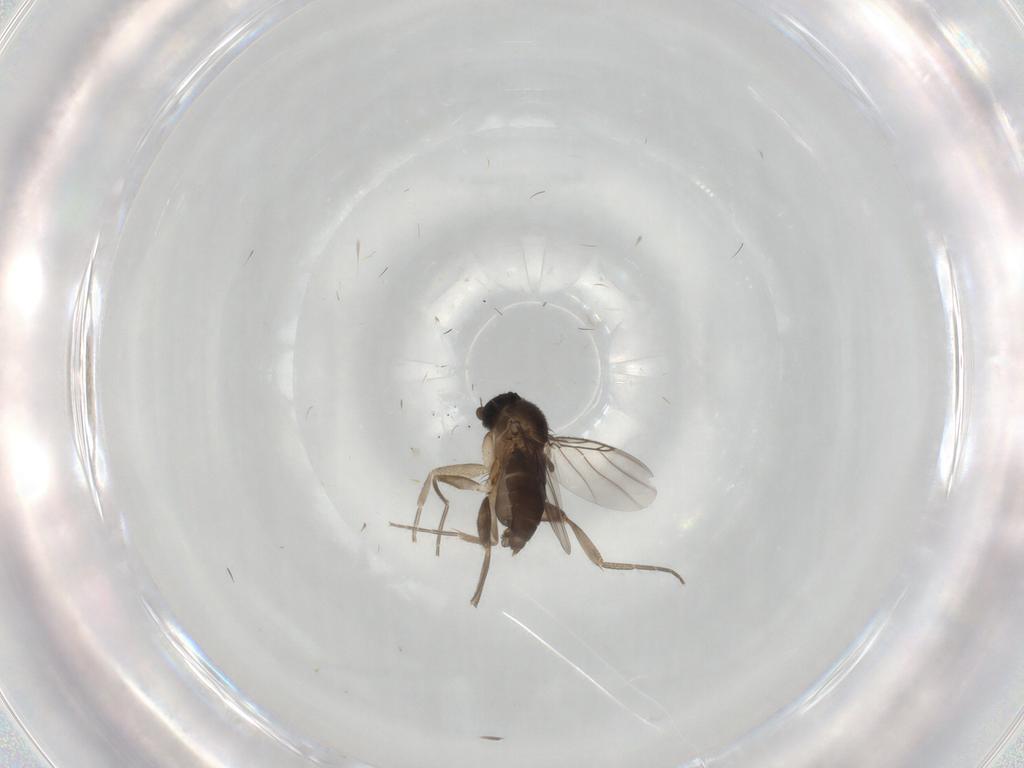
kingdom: Animalia
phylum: Arthropoda
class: Insecta
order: Diptera
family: Phoridae
